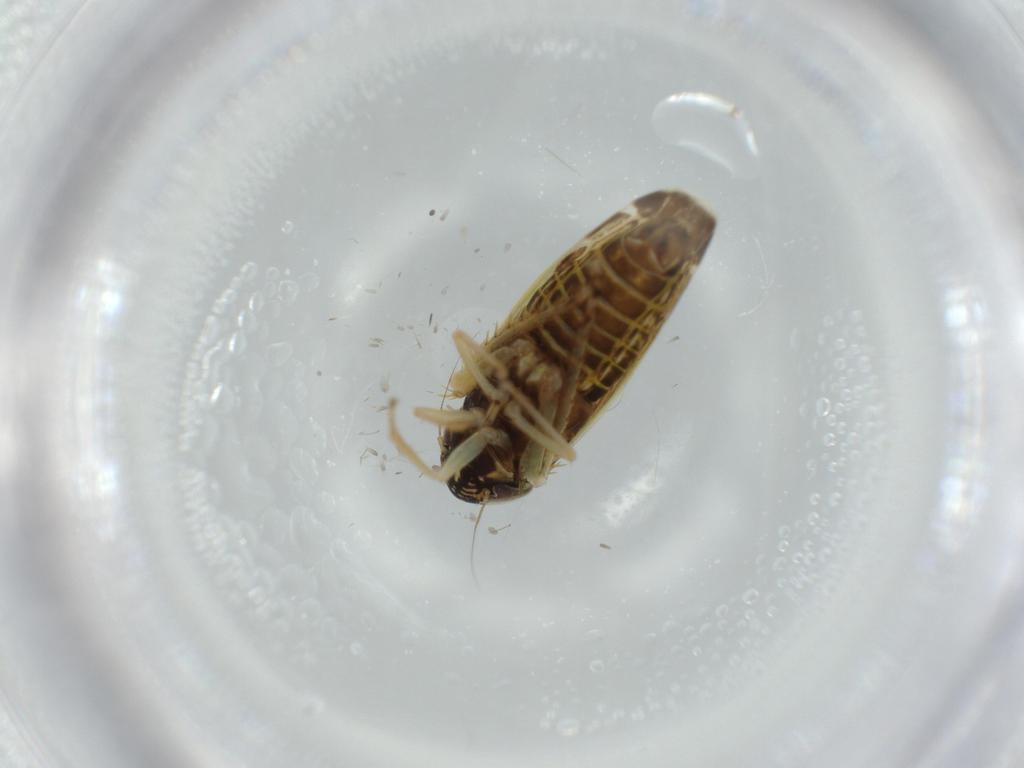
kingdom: Animalia
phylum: Arthropoda
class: Insecta
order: Hemiptera
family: Cicadellidae
